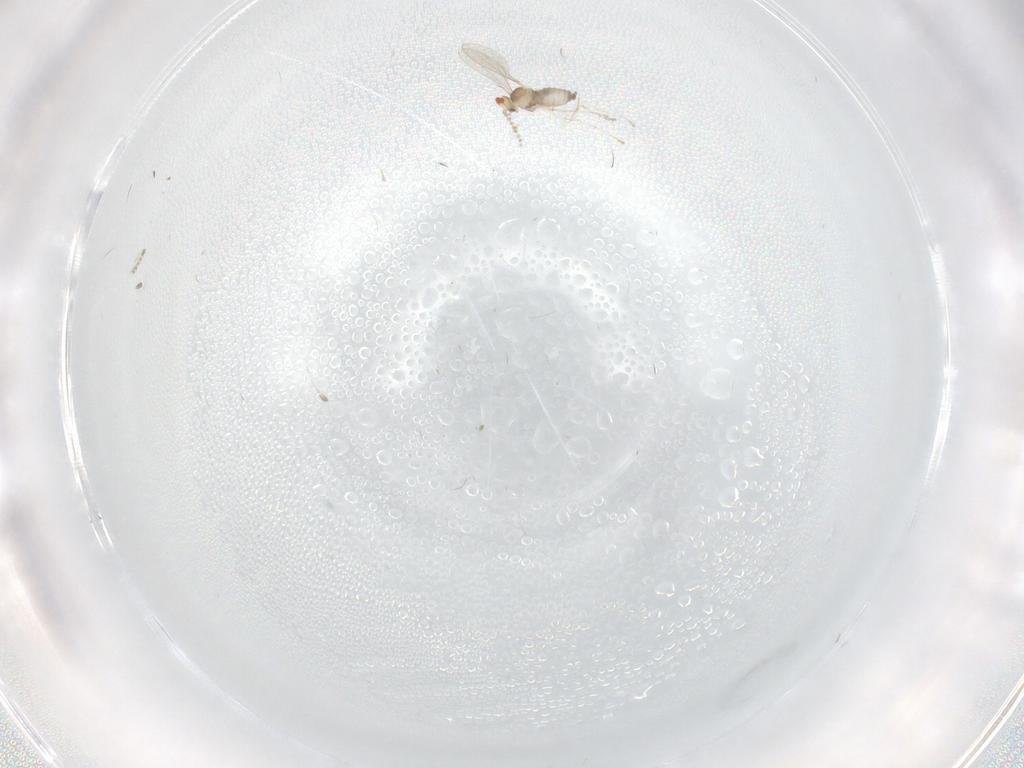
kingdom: Animalia
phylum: Arthropoda
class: Insecta
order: Diptera
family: Cecidomyiidae
